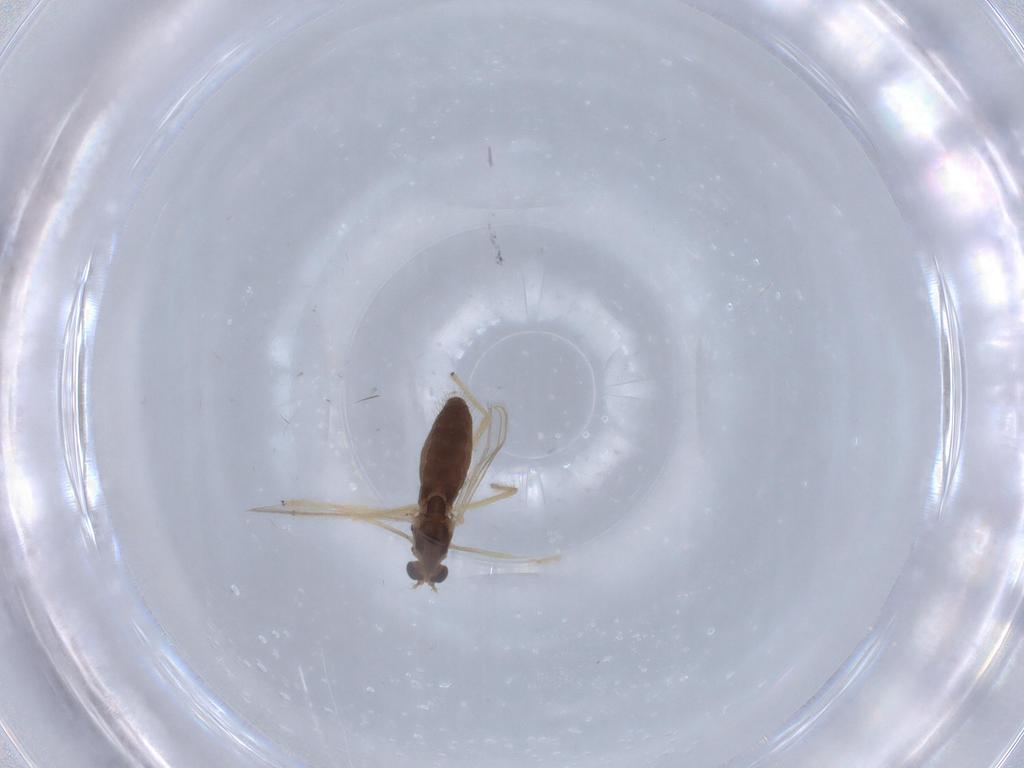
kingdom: Animalia
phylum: Arthropoda
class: Insecta
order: Diptera
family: Chironomidae
